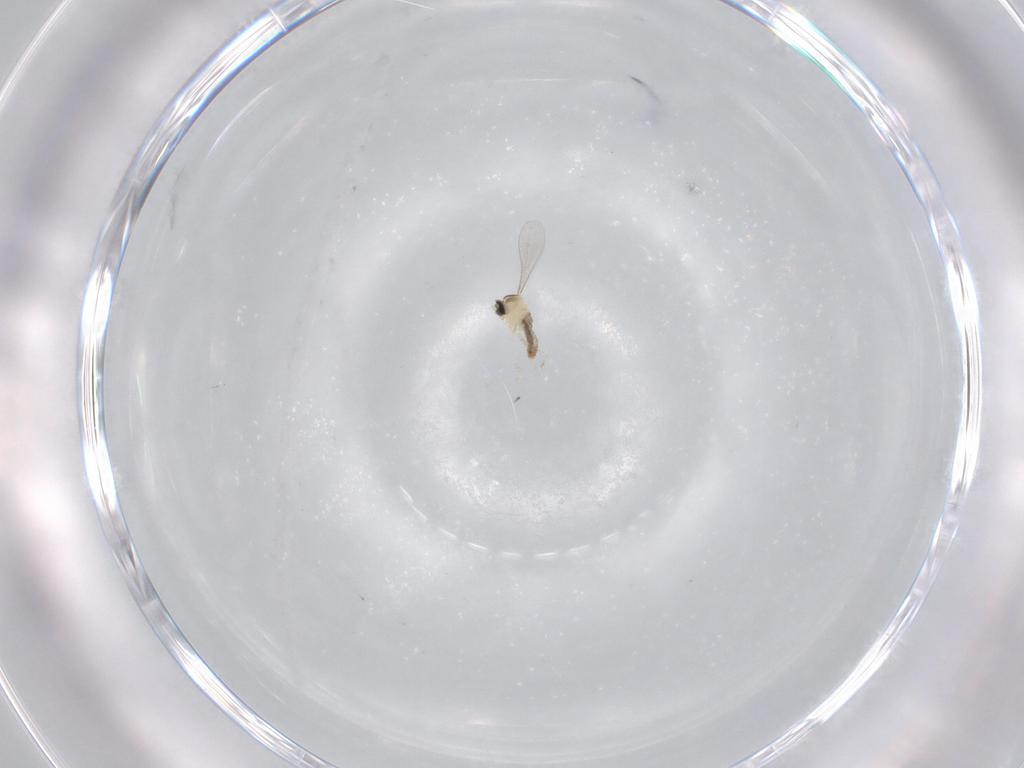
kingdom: Animalia
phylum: Arthropoda
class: Insecta
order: Diptera
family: Cecidomyiidae
